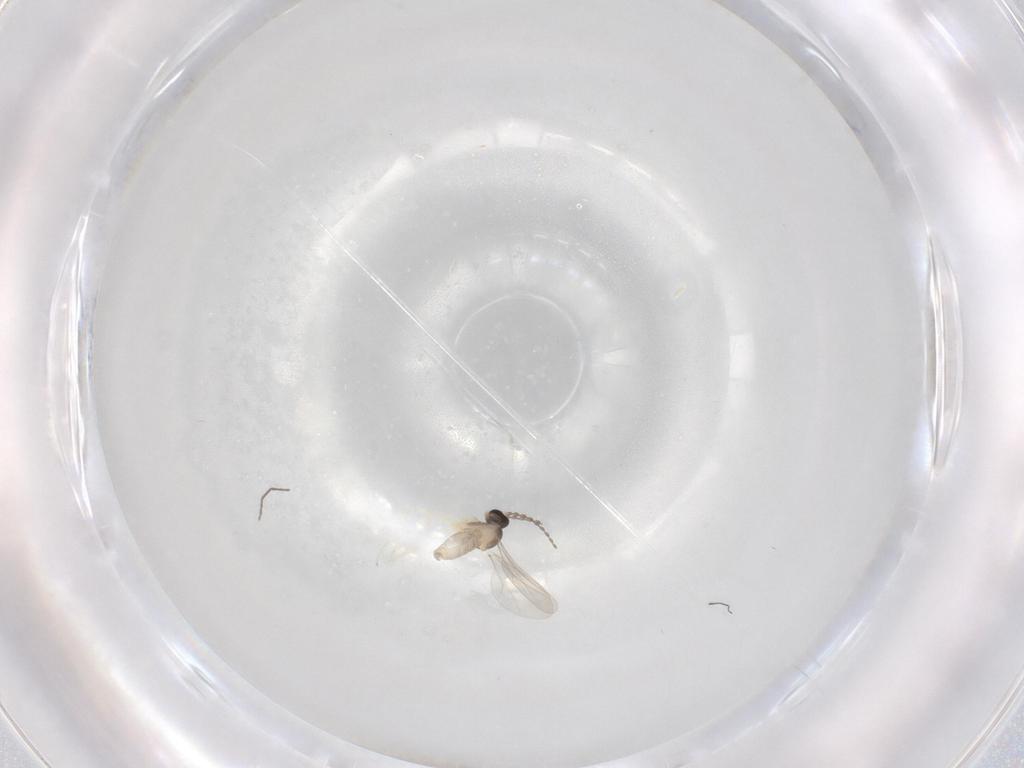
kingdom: Animalia
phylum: Arthropoda
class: Insecta
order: Diptera
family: Cecidomyiidae
